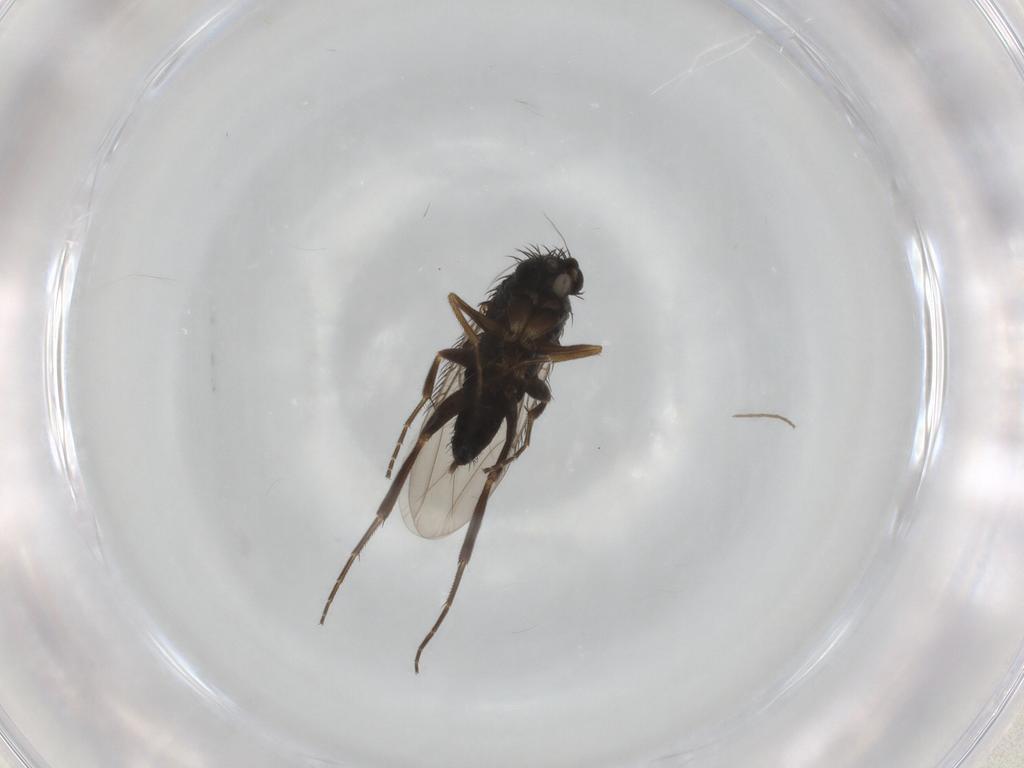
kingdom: Animalia
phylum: Arthropoda
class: Insecta
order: Diptera
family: Phoridae
